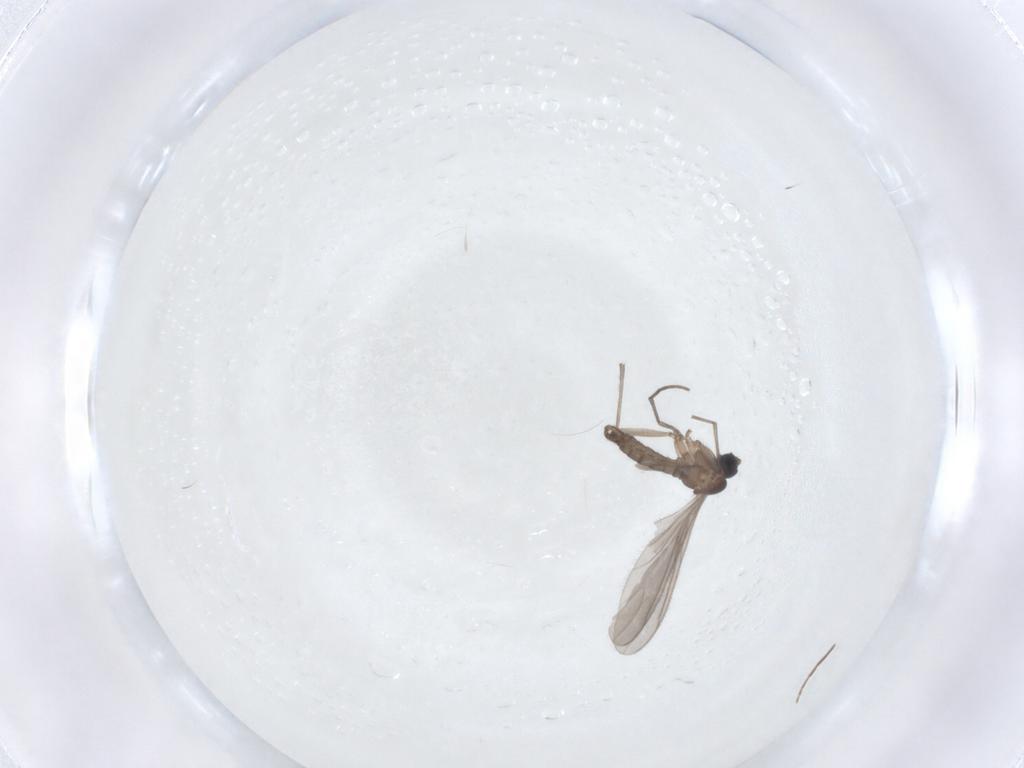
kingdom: Animalia
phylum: Arthropoda
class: Insecta
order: Diptera
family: Sciaridae
